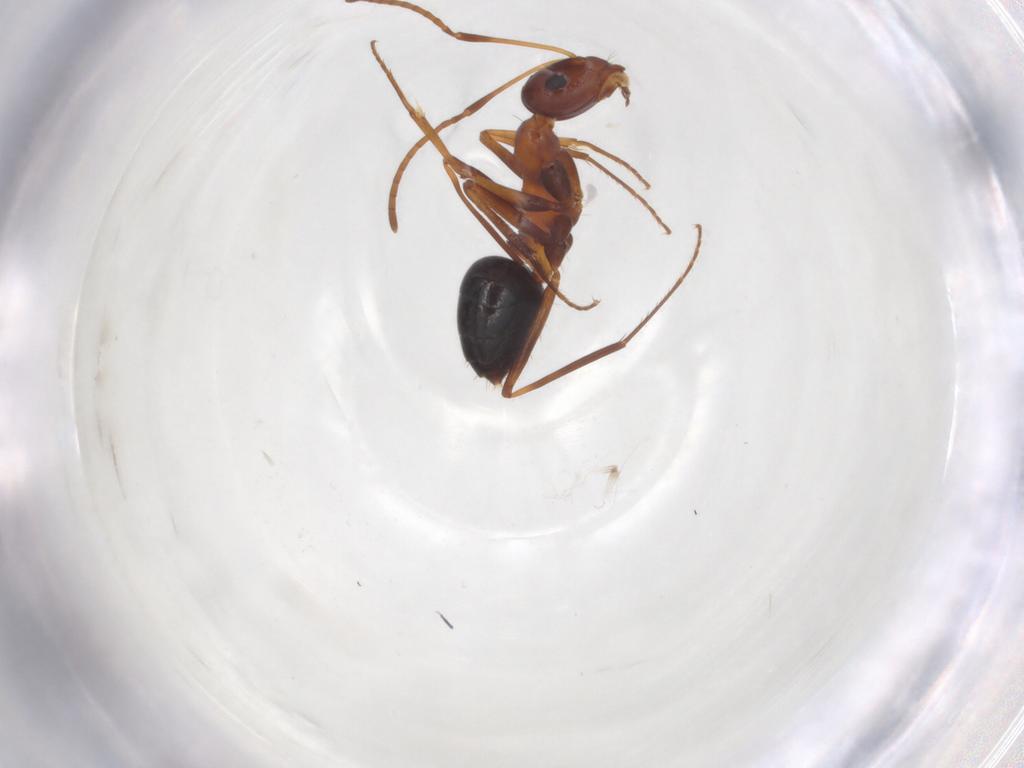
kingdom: Animalia
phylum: Arthropoda
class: Insecta
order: Hymenoptera
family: Formicidae
